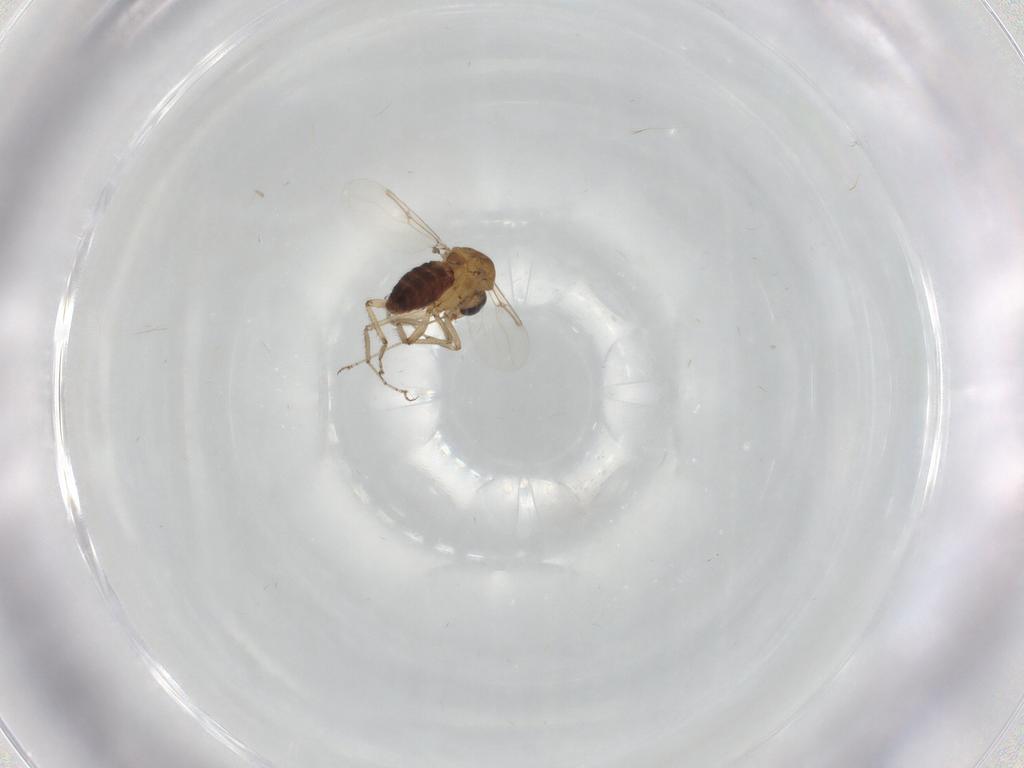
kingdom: Animalia
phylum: Arthropoda
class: Insecta
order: Diptera
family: Ceratopogonidae
